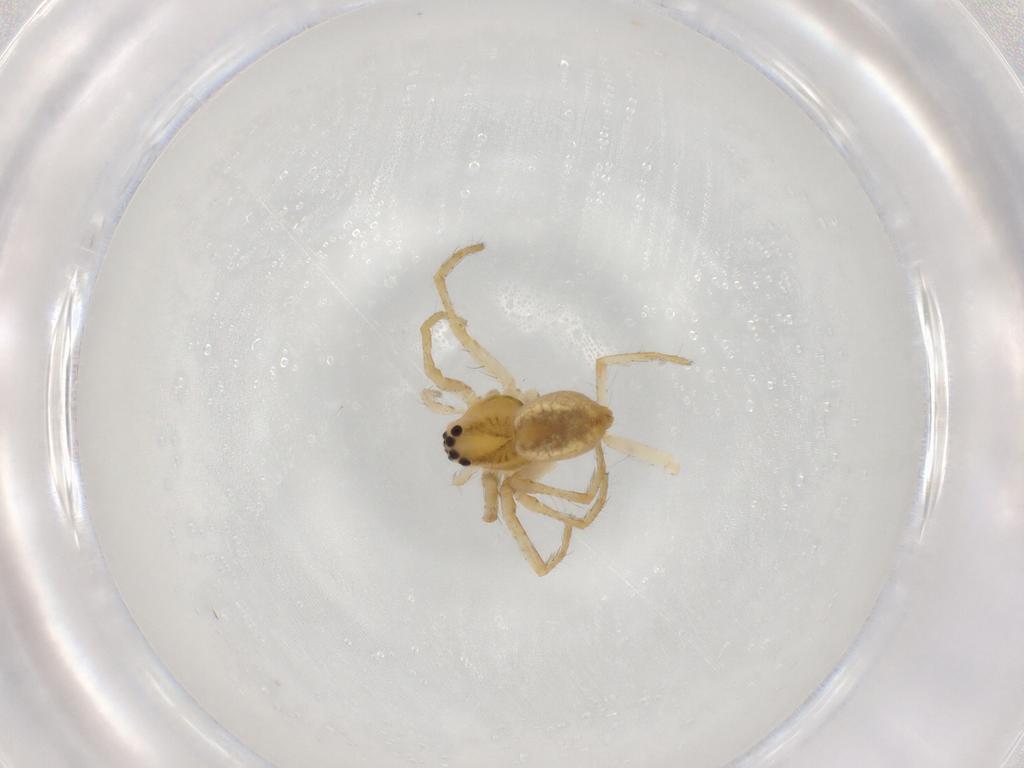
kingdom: Animalia
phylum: Arthropoda
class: Arachnida
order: Araneae
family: Pisauridae
